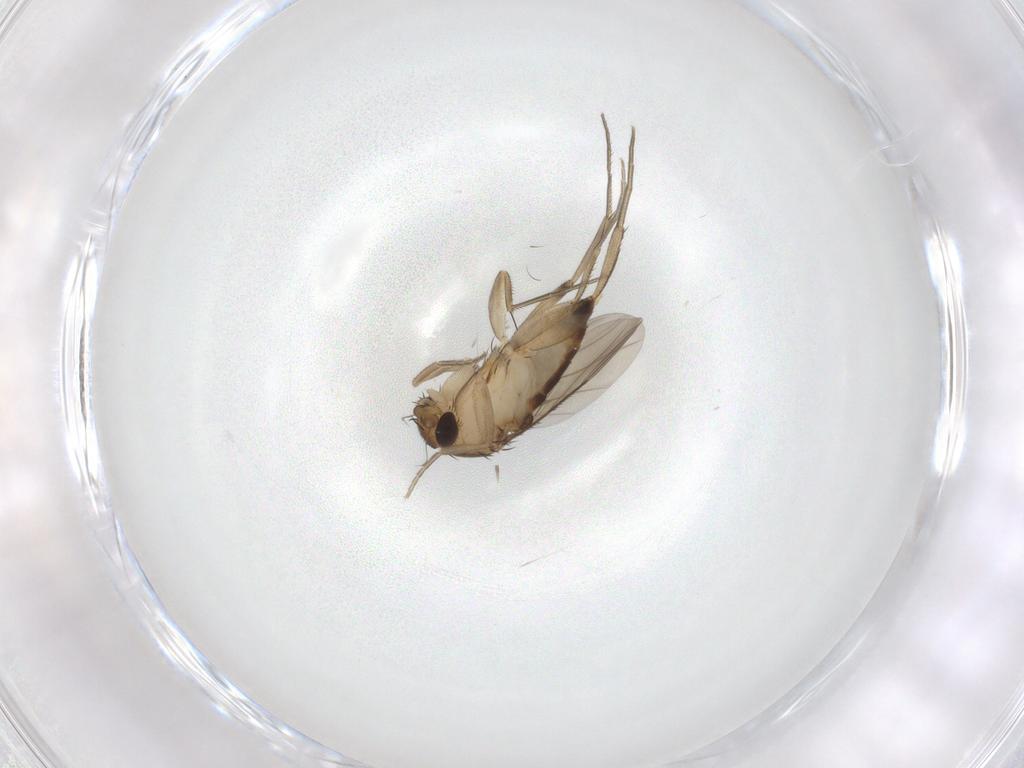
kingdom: Animalia
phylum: Arthropoda
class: Insecta
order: Diptera
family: Phoridae
